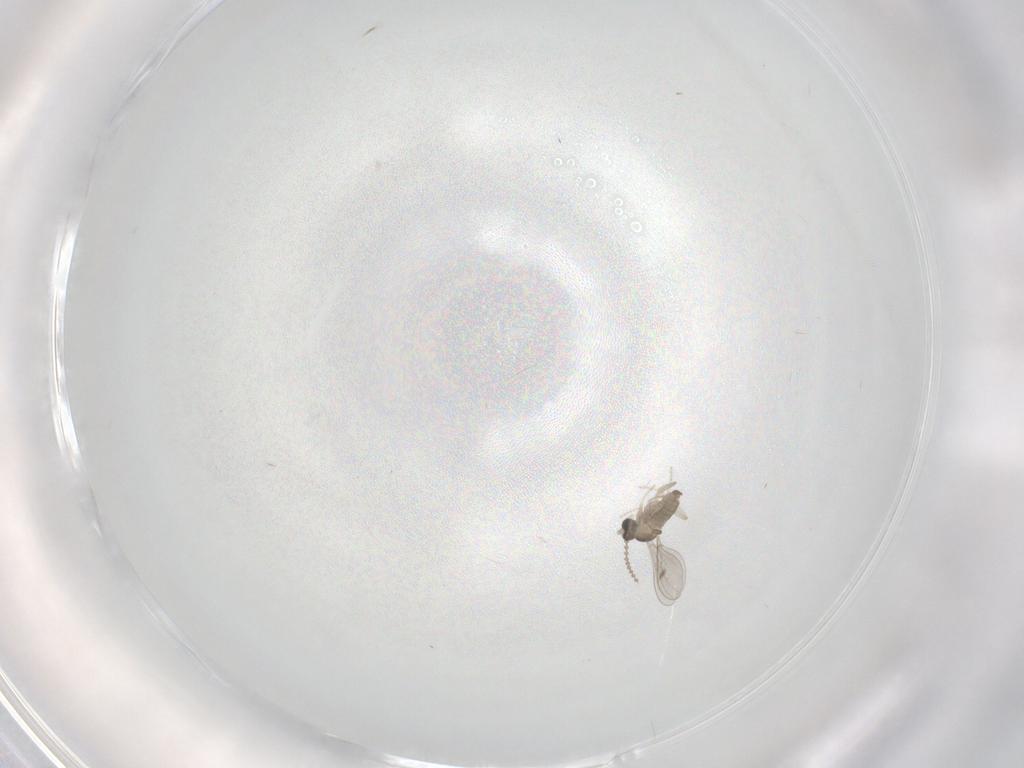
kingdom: Animalia
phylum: Arthropoda
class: Insecta
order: Diptera
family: Cecidomyiidae
